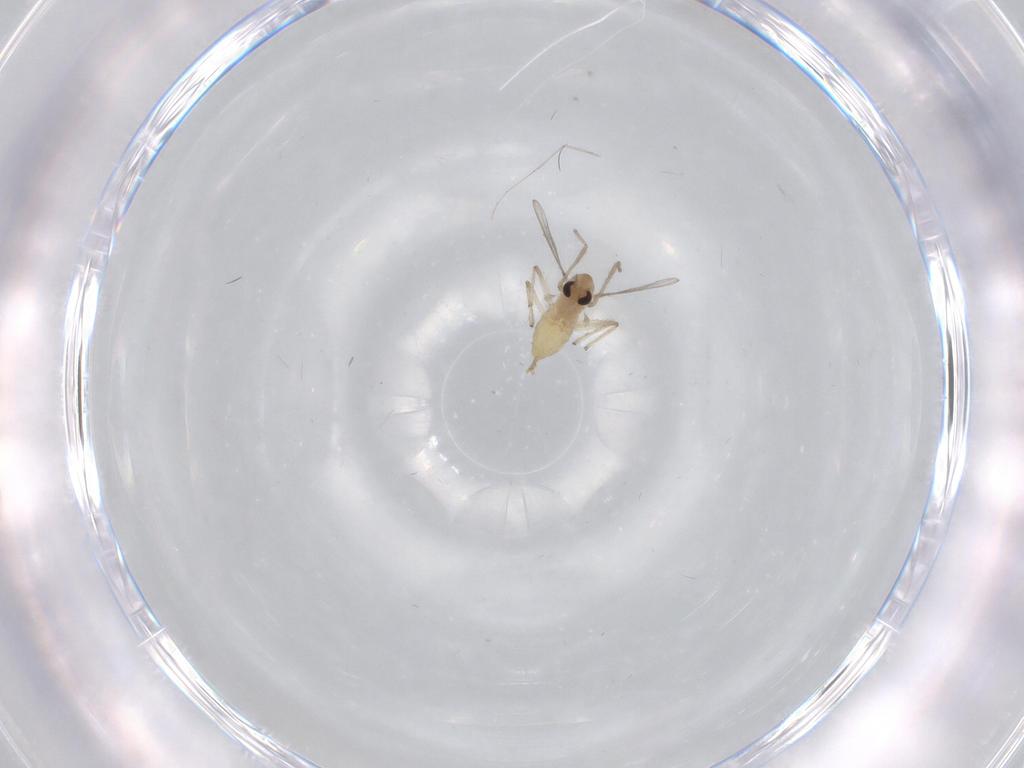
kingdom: Animalia
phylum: Arthropoda
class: Insecta
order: Diptera
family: Chironomidae
